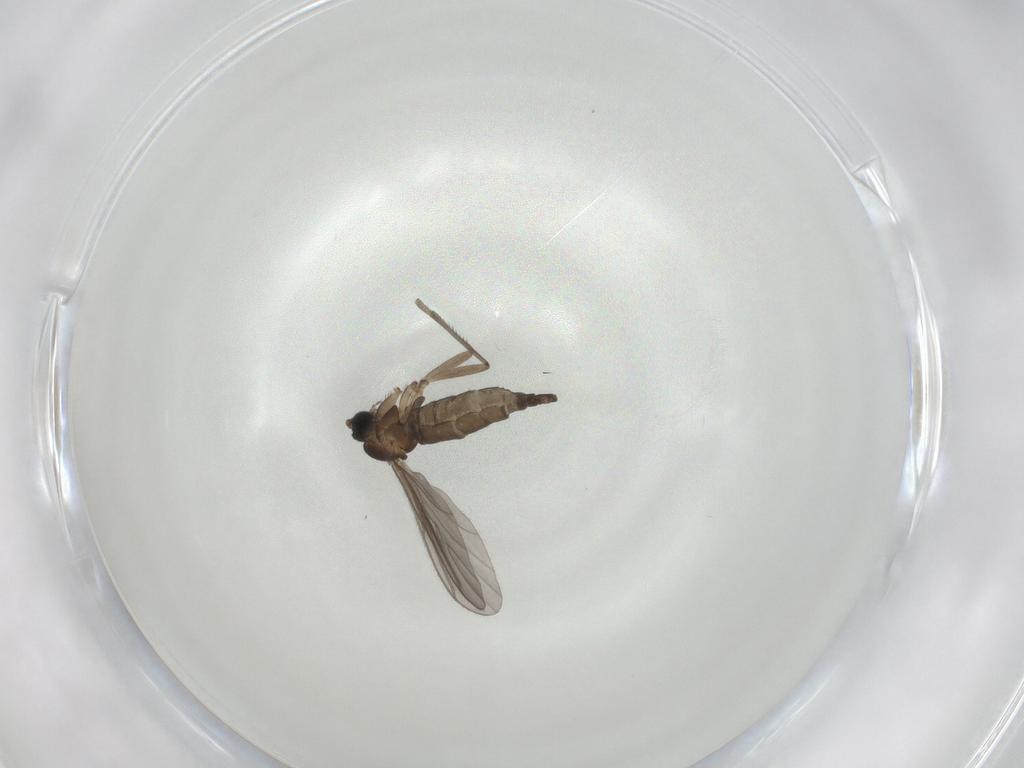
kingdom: Animalia
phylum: Arthropoda
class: Insecta
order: Diptera
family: Sciaridae
